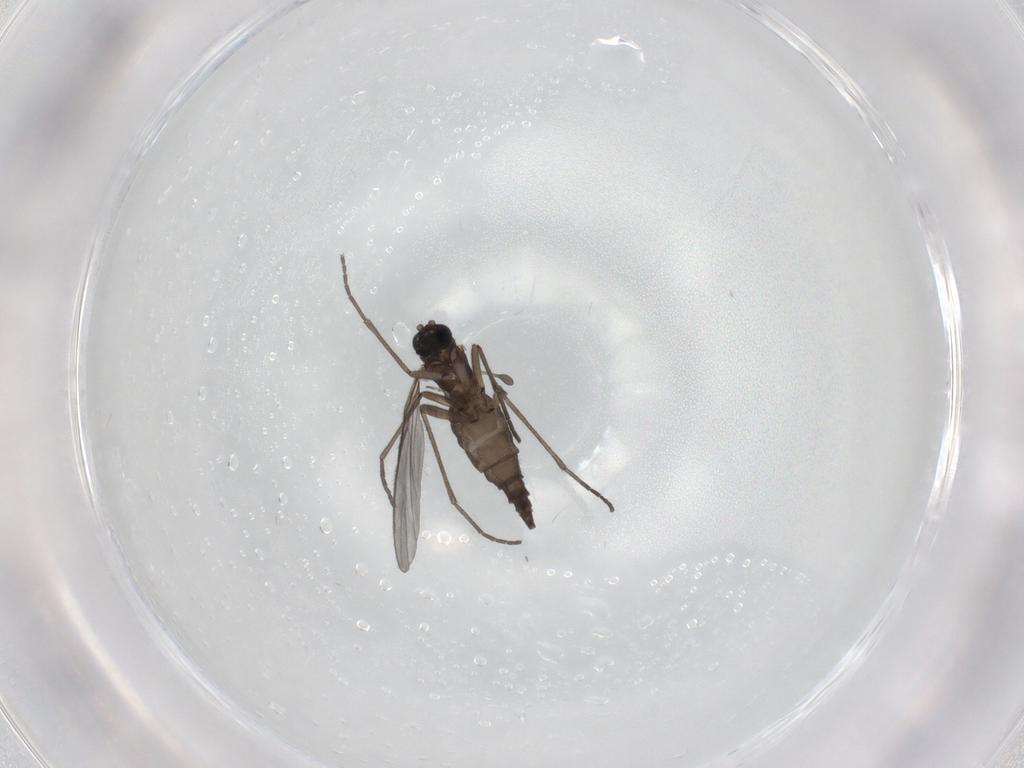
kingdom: Animalia
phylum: Arthropoda
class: Insecta
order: Diptera
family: Sciaridae
